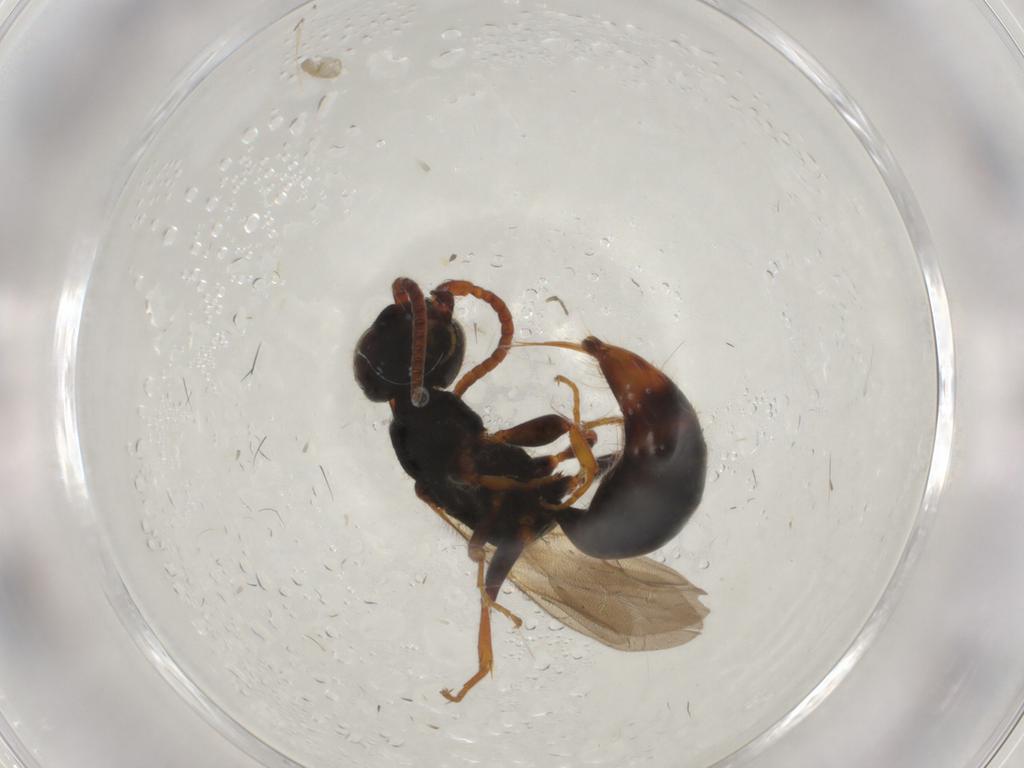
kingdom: Animalia
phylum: Arthropoda
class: Insecta
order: Hymenoptera
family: Bethylidae
